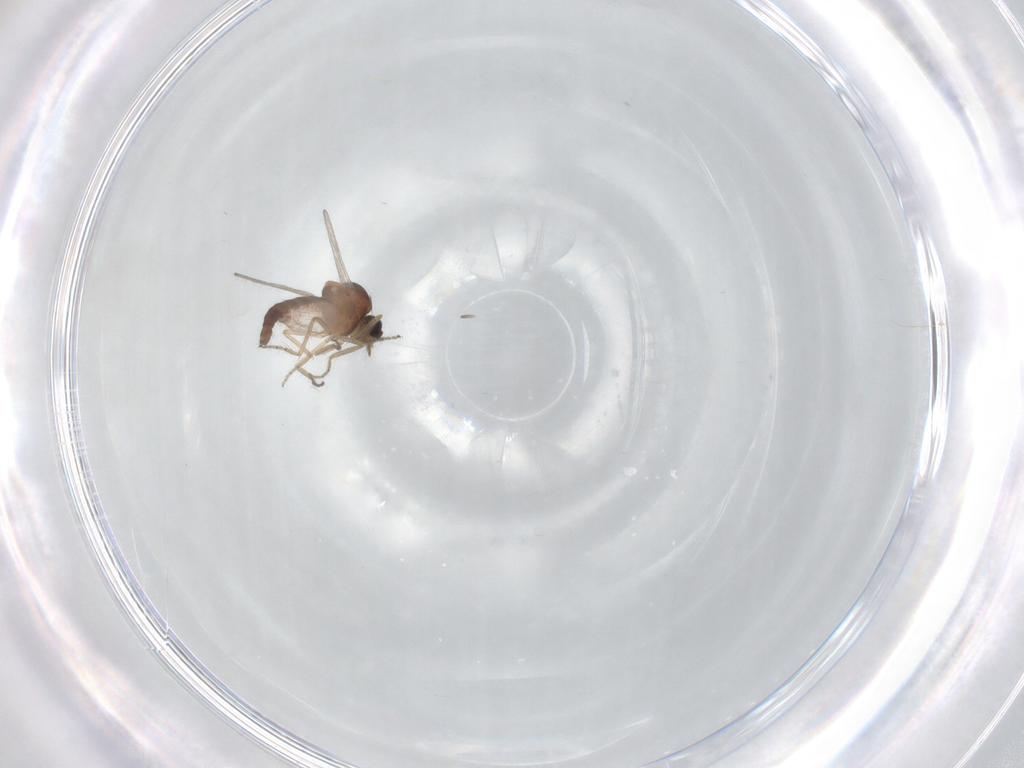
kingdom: Animalia
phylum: Arthropoda
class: Insecta
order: Diptera
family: Ceratopogonidae
